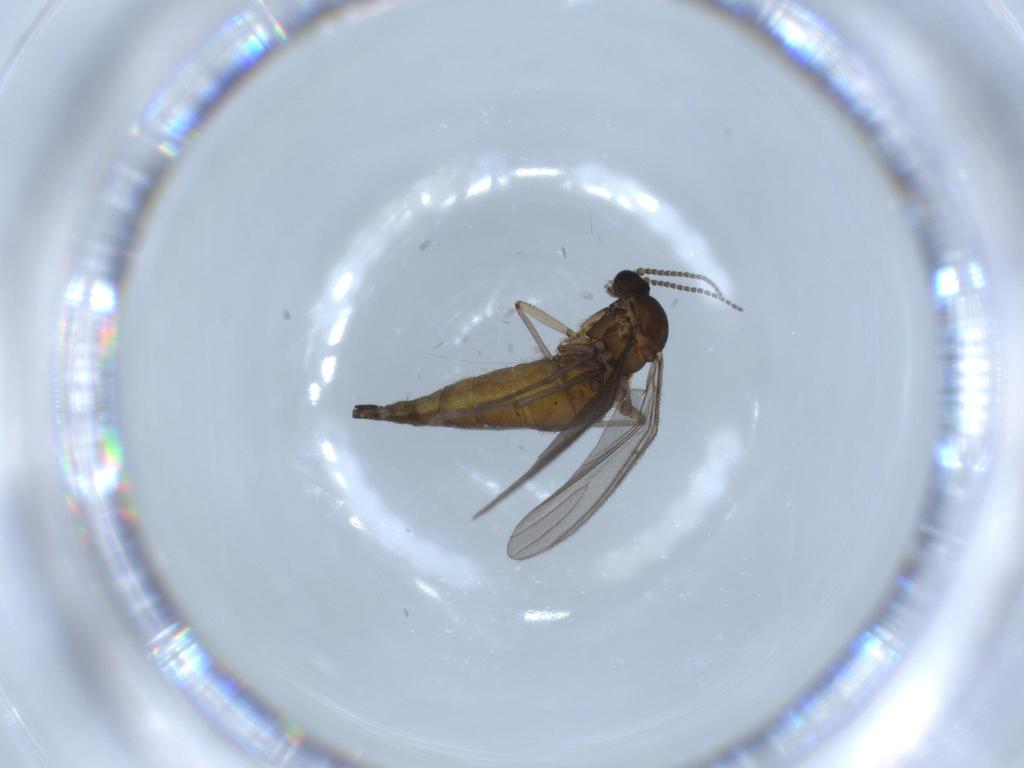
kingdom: Animalia
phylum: Arthropoda
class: Insecta
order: Diptera
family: Sciaridae
